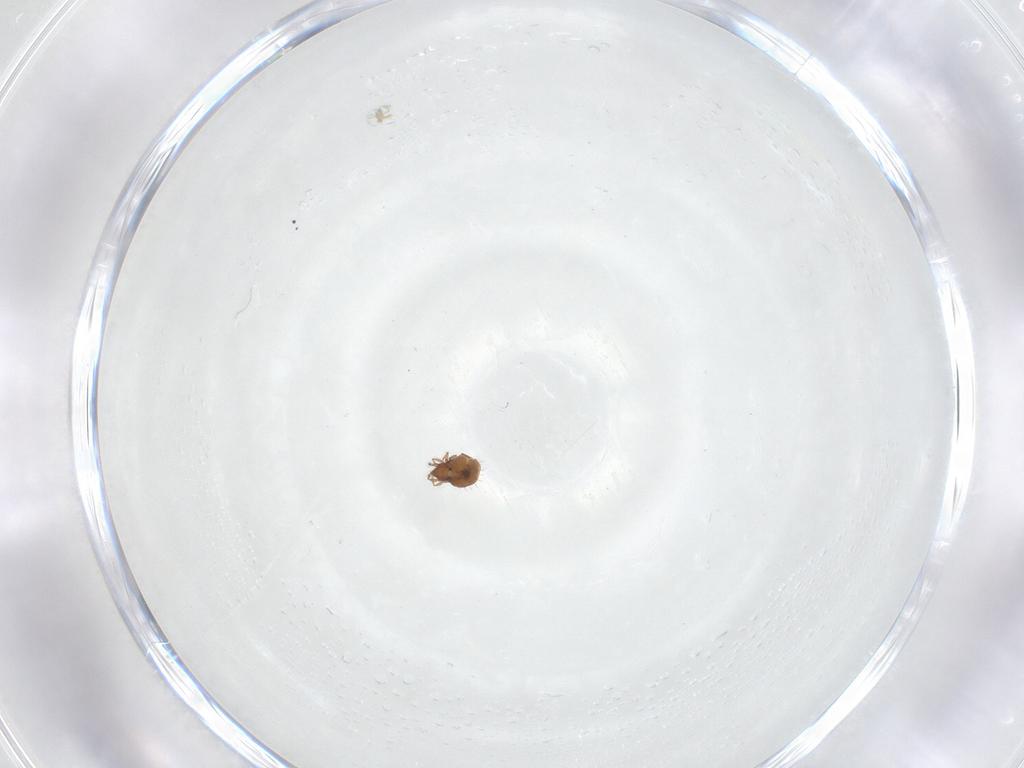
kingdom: Animalia
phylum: Arthropoda
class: Arachnida
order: Sarcoptiformes
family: Oribatulidae
